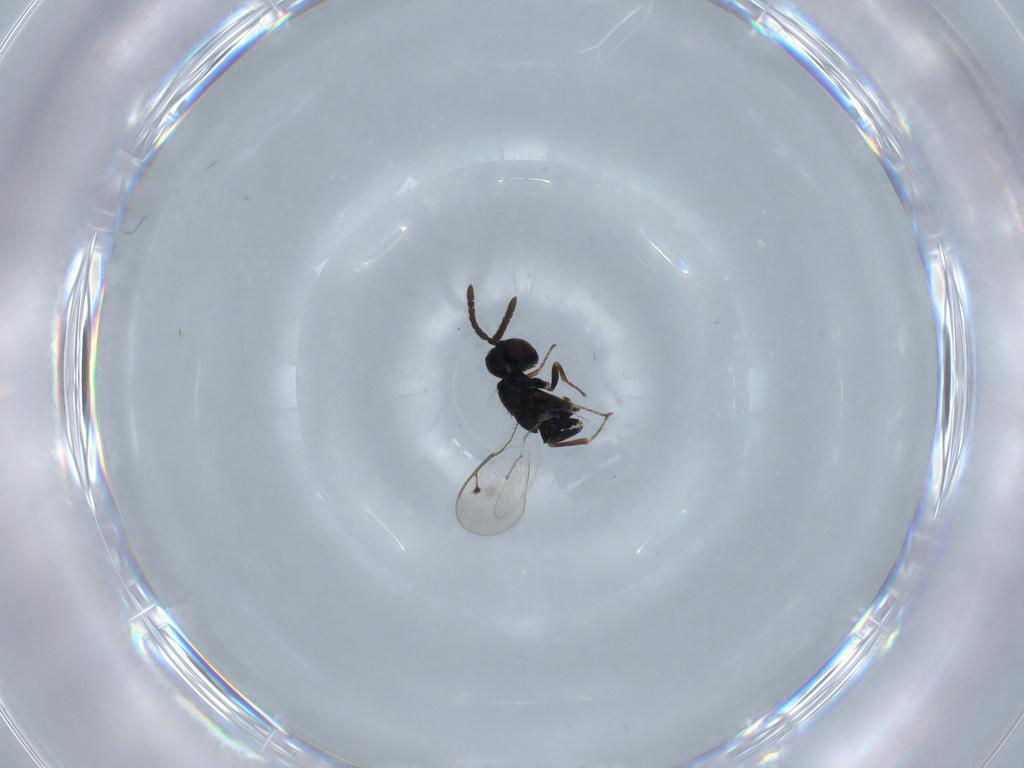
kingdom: Animalia
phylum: Arthropoda
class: Insecta
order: Hymenoptera
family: Pteromalidae
